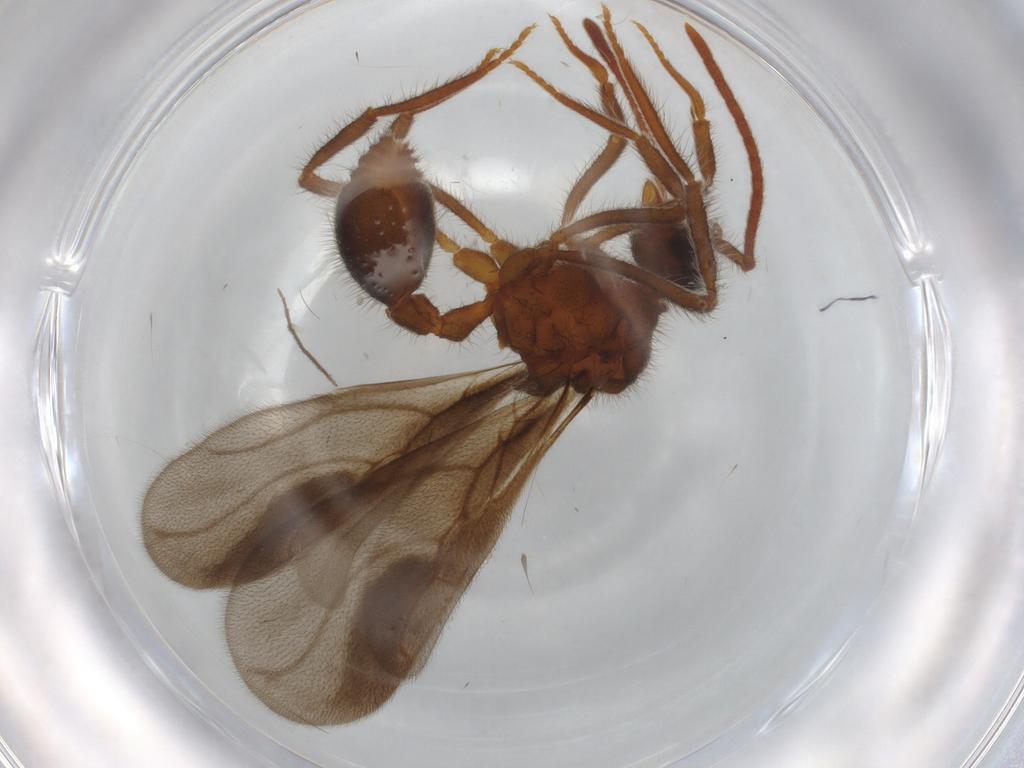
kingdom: Animalia
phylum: Arthropoda
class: Insecta
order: Hymenoptera
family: Formicidae
